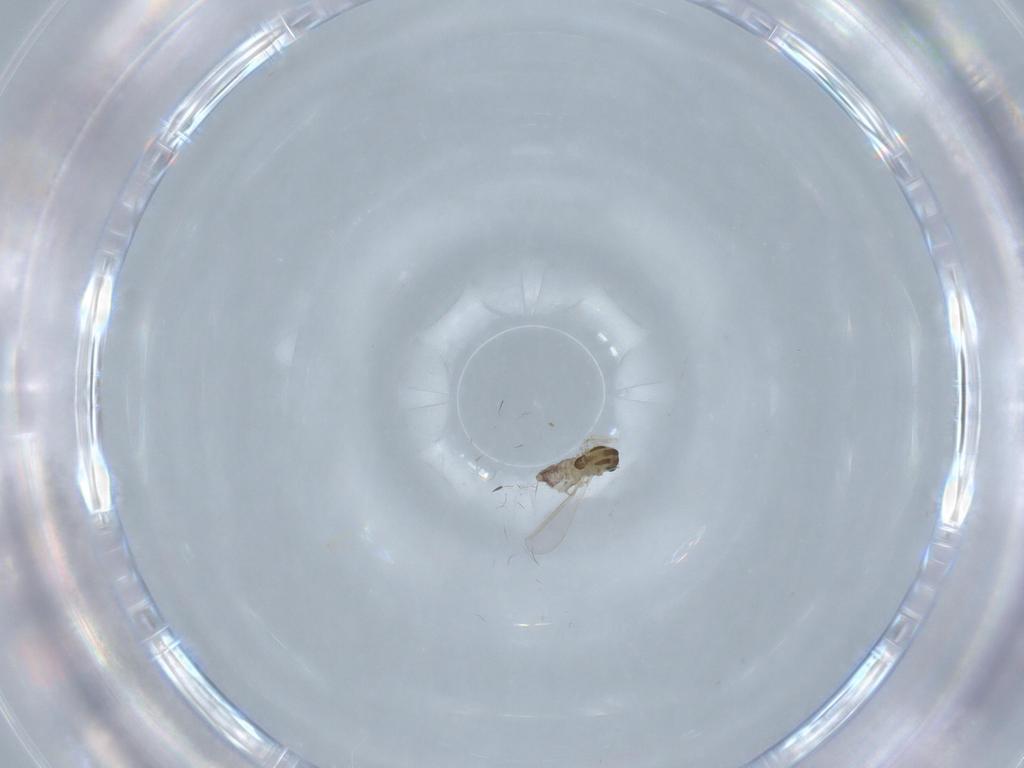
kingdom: Animalia
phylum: Arthropoda
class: Insecta
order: Diptera
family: Chironomidae
